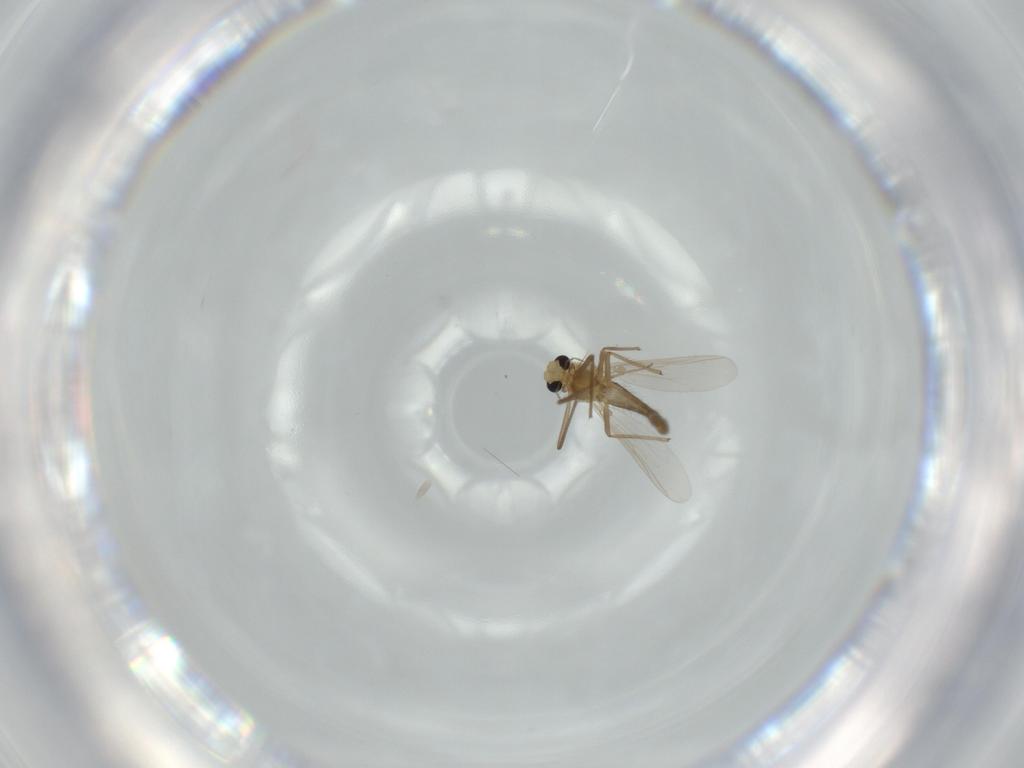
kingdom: Animalia
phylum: Arthropoda
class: Insecta
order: Diptera
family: Chironomidae
